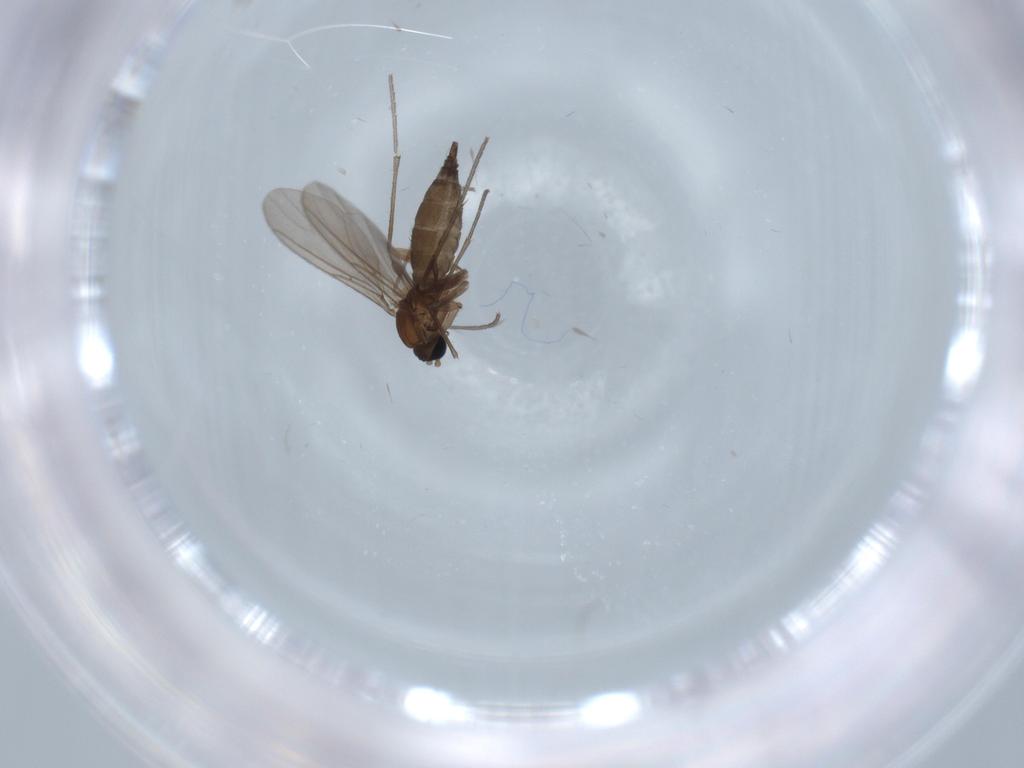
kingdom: Animalia
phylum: Arthropoda
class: Insecta
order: Diptera
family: Sciaridae
